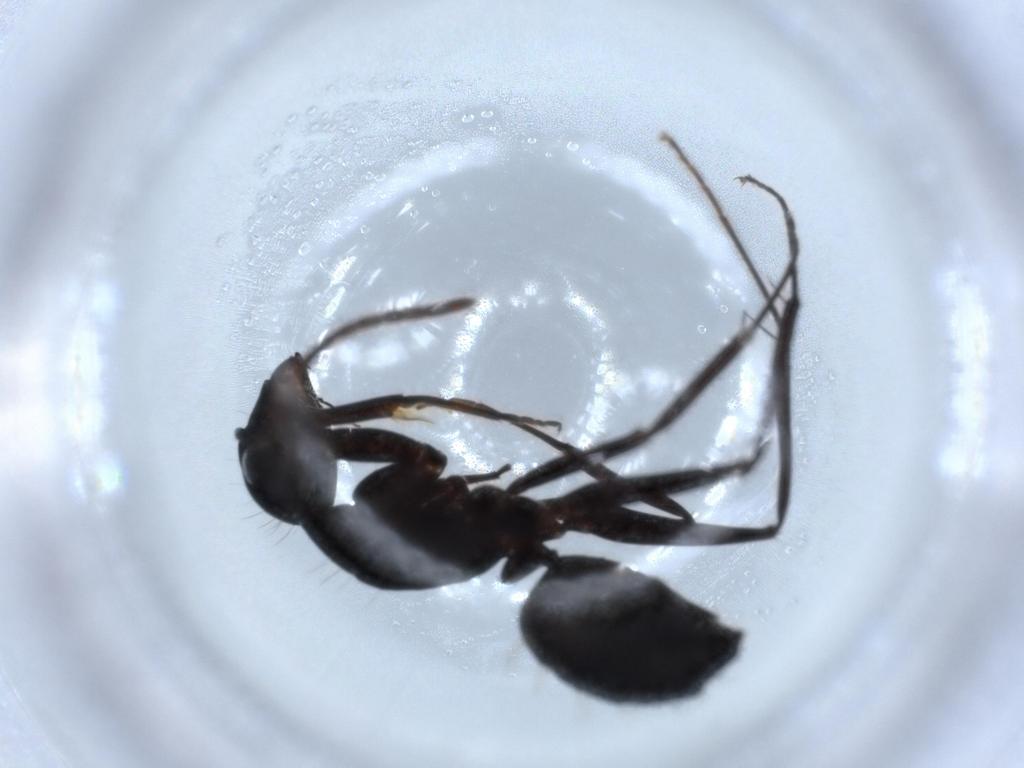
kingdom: Animalia
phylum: Arthropoda
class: Insecta
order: Hymenoptera
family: Formicidae
